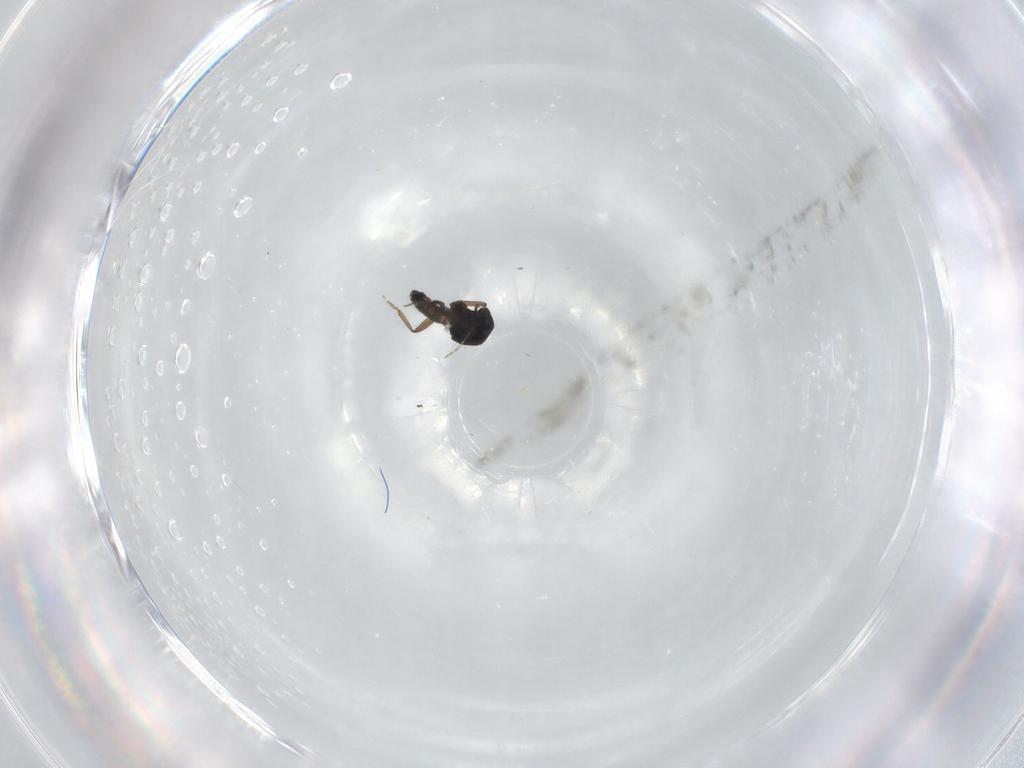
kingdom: Animalia
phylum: Arthropoda
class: Insecta
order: Diptera
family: Ceratopogonidae
